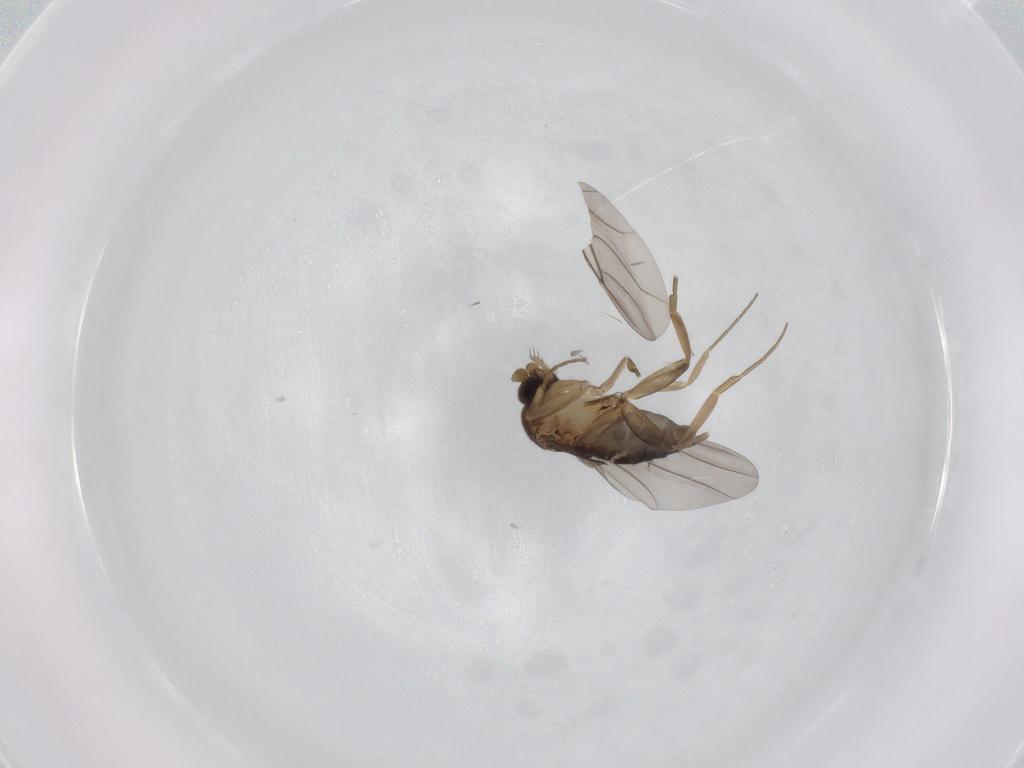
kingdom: Animalia
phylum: Arthropoda
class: Insecta
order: Diptera
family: Phoridae
